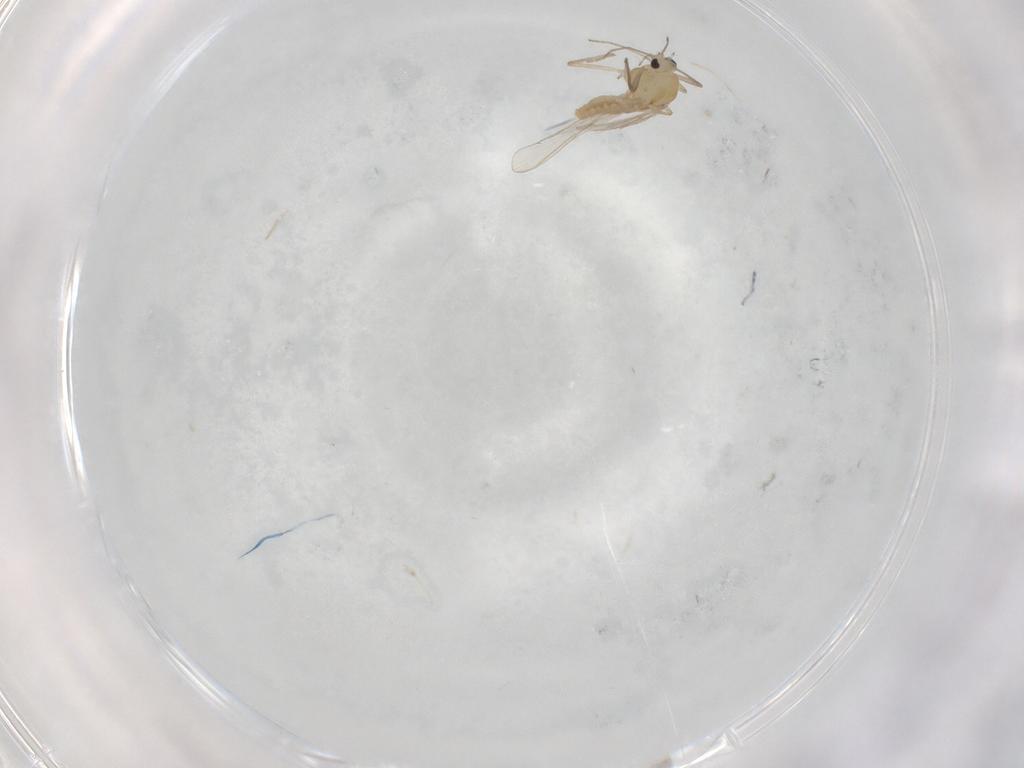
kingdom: Animalia
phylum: Arthropoda
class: Insecta
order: Diptera
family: Chironomidae
